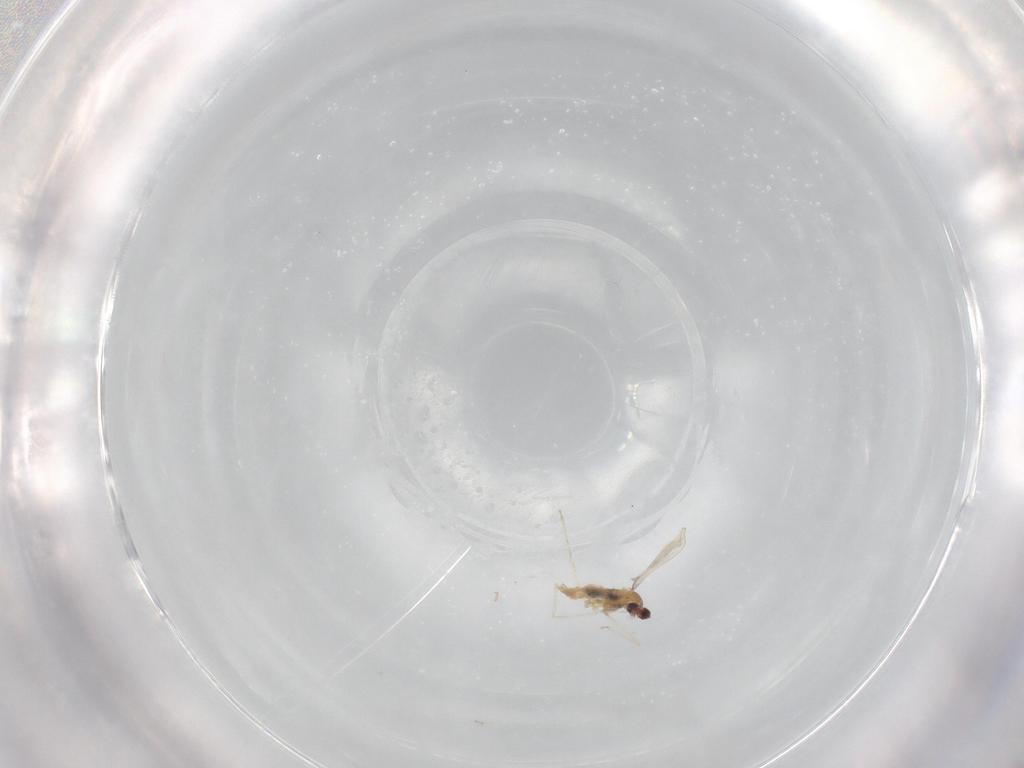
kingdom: Animalia
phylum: Arthropoda
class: Insecta
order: Diptera
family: Cecidomyiidae
